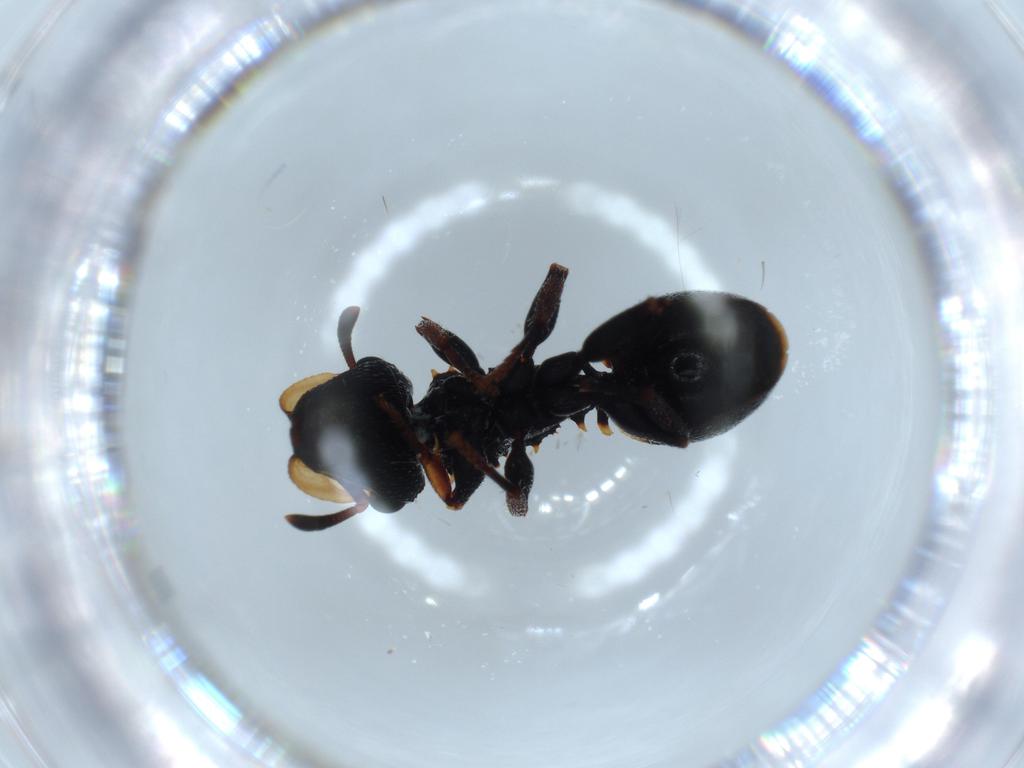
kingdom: Animalia
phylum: Arthropoda
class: Insecta
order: Hymenoptera
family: Formicidae
